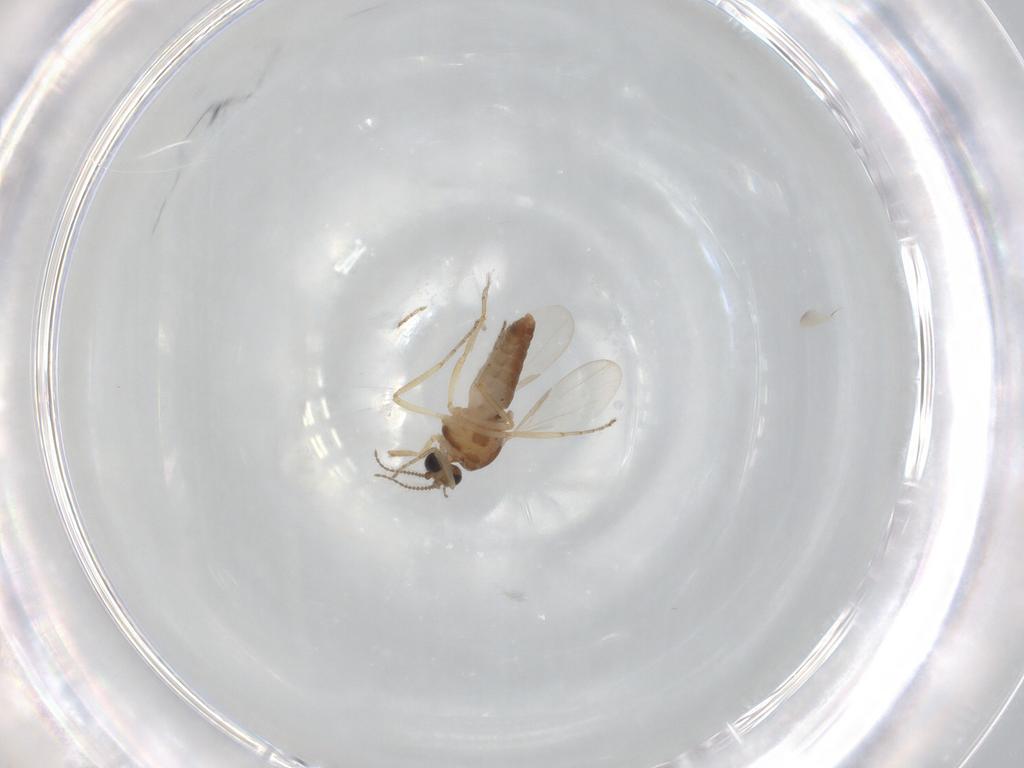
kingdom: Animalia
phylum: Arthropoda
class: Insecta
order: Diptera
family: Ceratopogonidae
